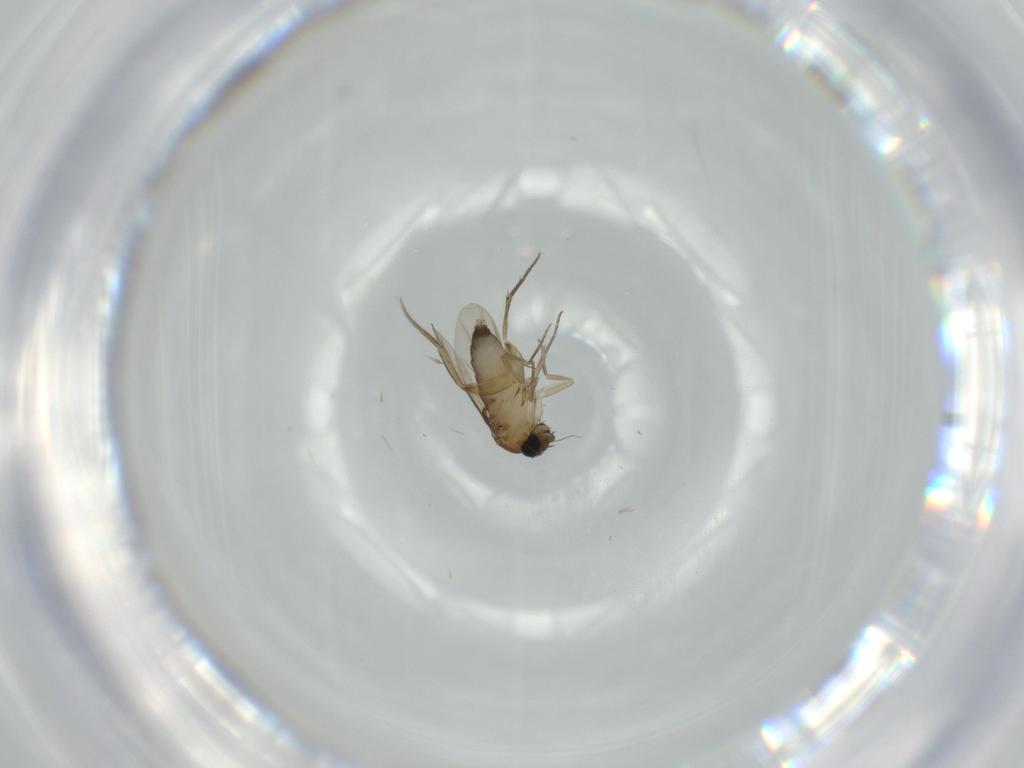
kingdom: Animalia
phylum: Arthropoda
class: Insecta
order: Diptera
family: Phoridae
